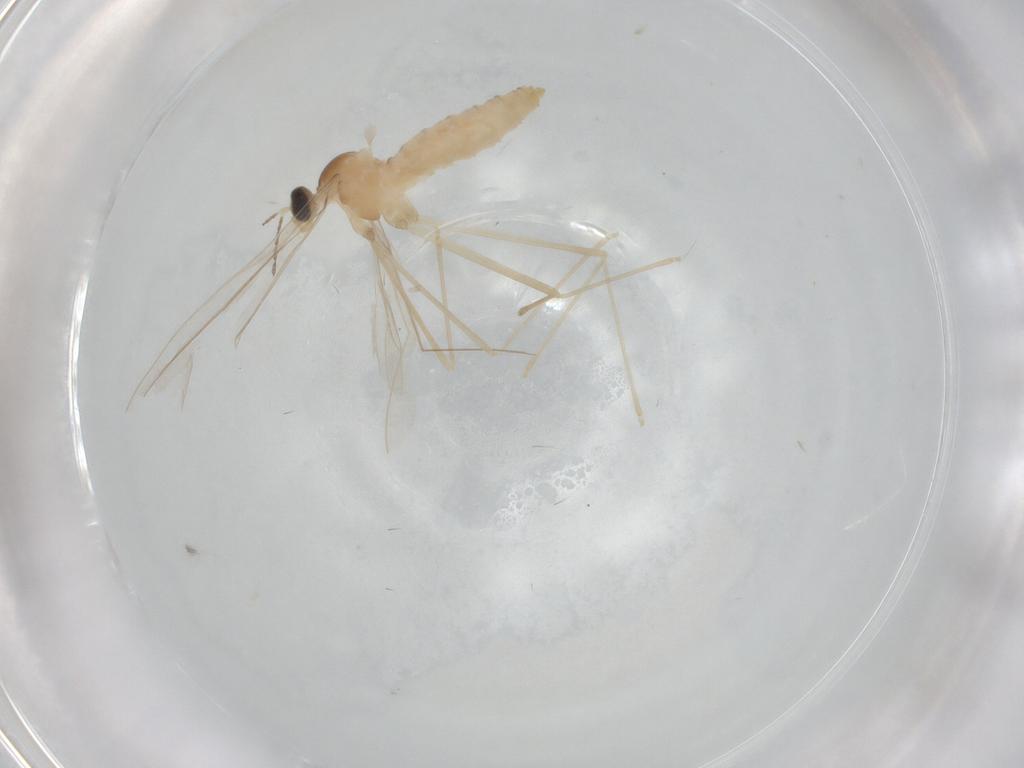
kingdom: Animalia
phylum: Arthropoda
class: Insecta
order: Diptera
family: Cecidomyiidae
